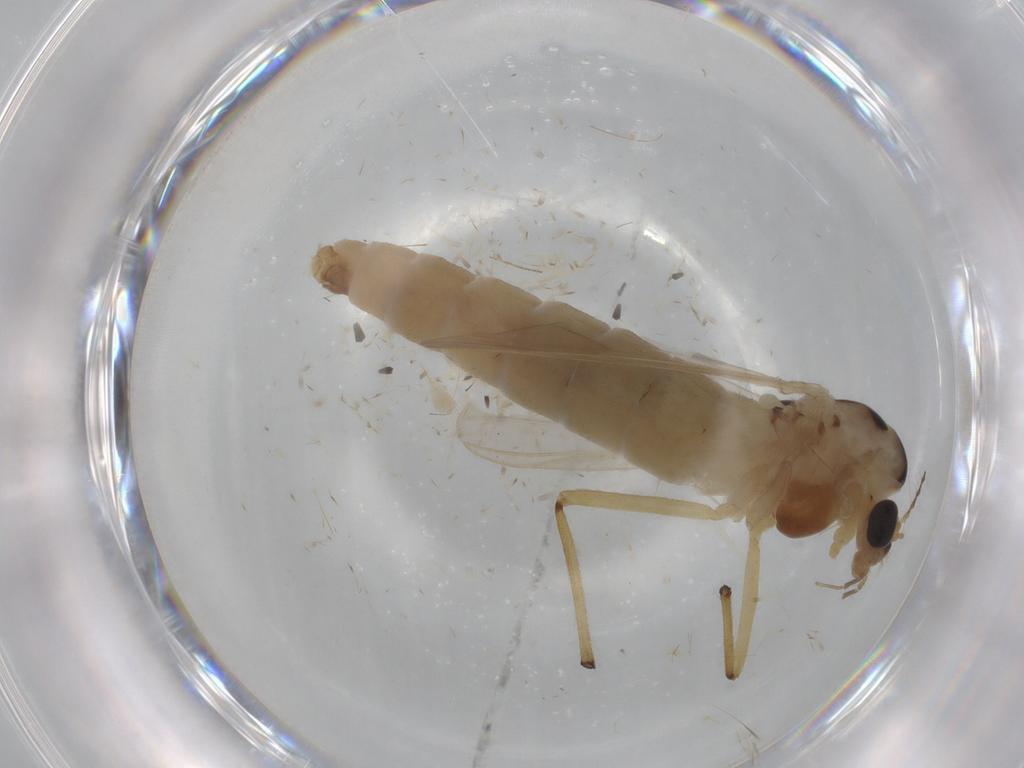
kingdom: Animalia
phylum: Arthropoda
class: Insecta
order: Diptera
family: Chironomidae
